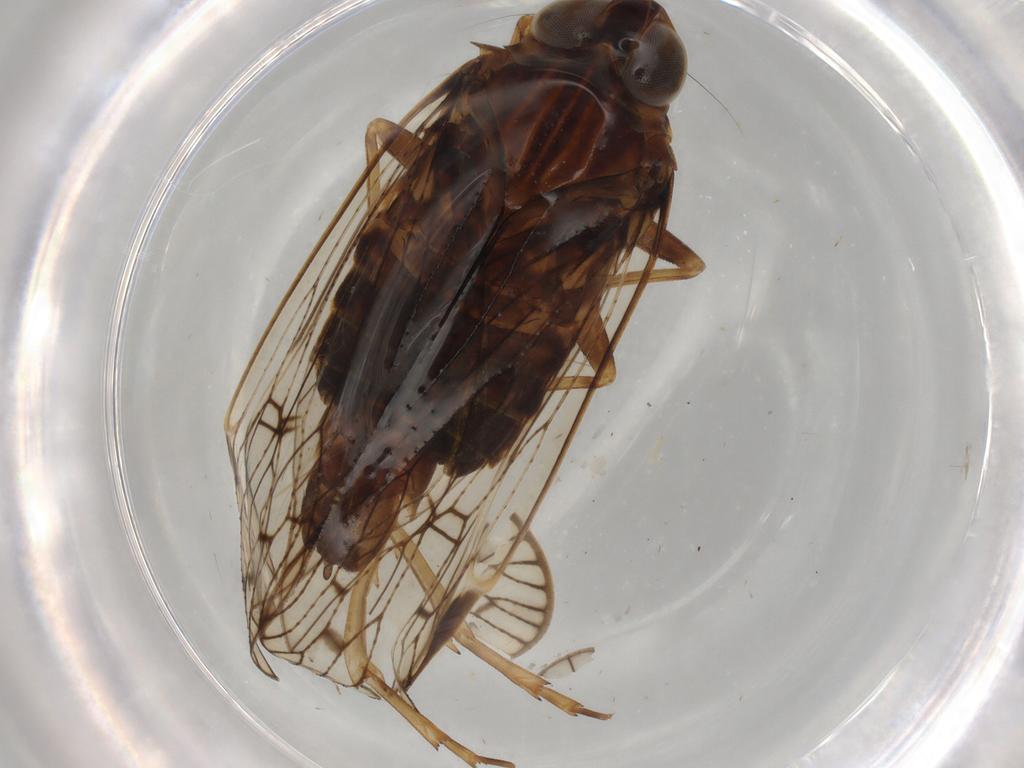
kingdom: Animalia
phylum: Arthropoda
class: Insecta
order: Hemiptera
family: Cixiidae
